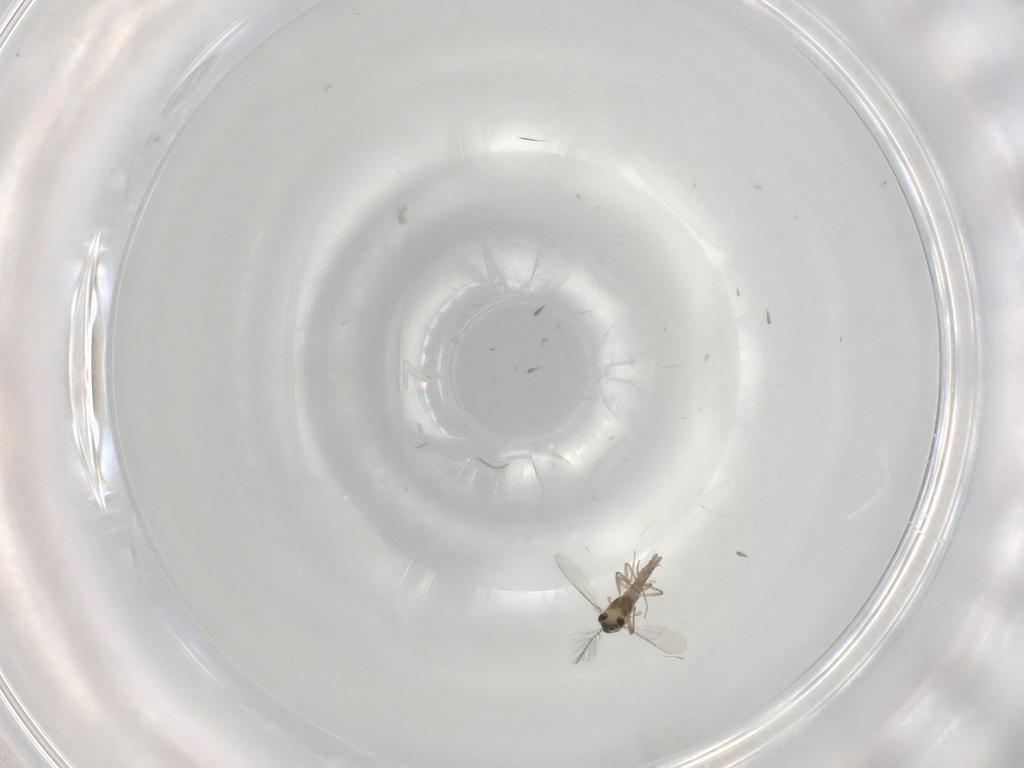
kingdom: Animalia
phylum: Arthropoda
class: Insecta
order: Diptera
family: Chironomidae
